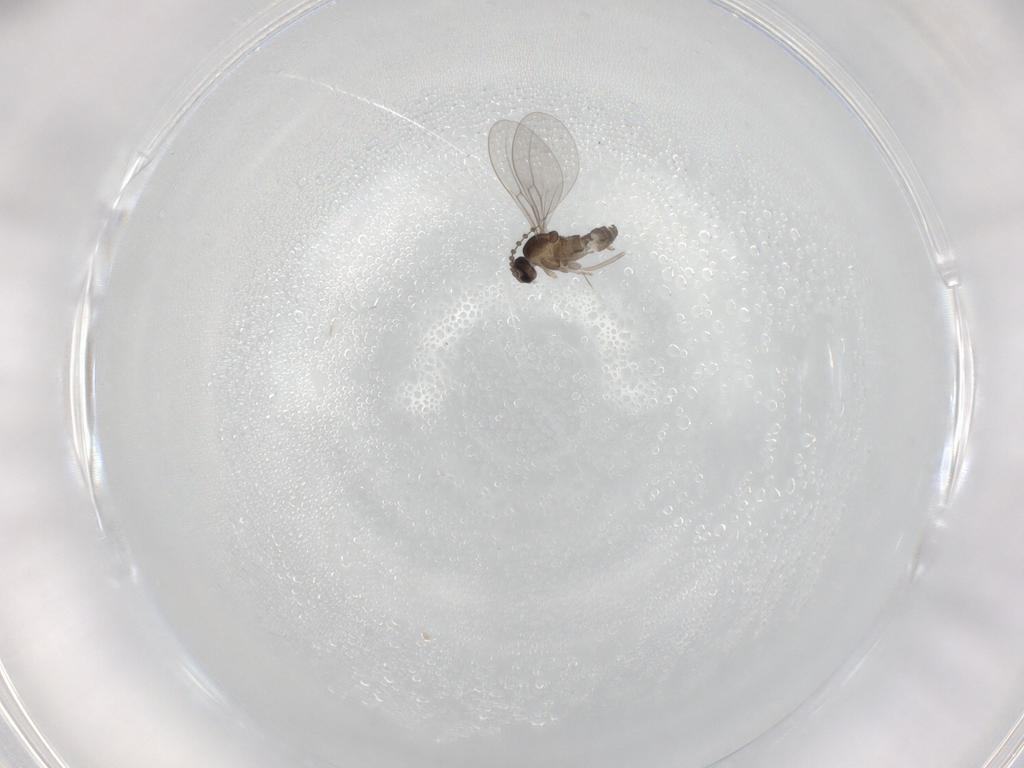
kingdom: Animalia
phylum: Arthropoda
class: Insecta
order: Diptera
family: Cecidomyiidae
